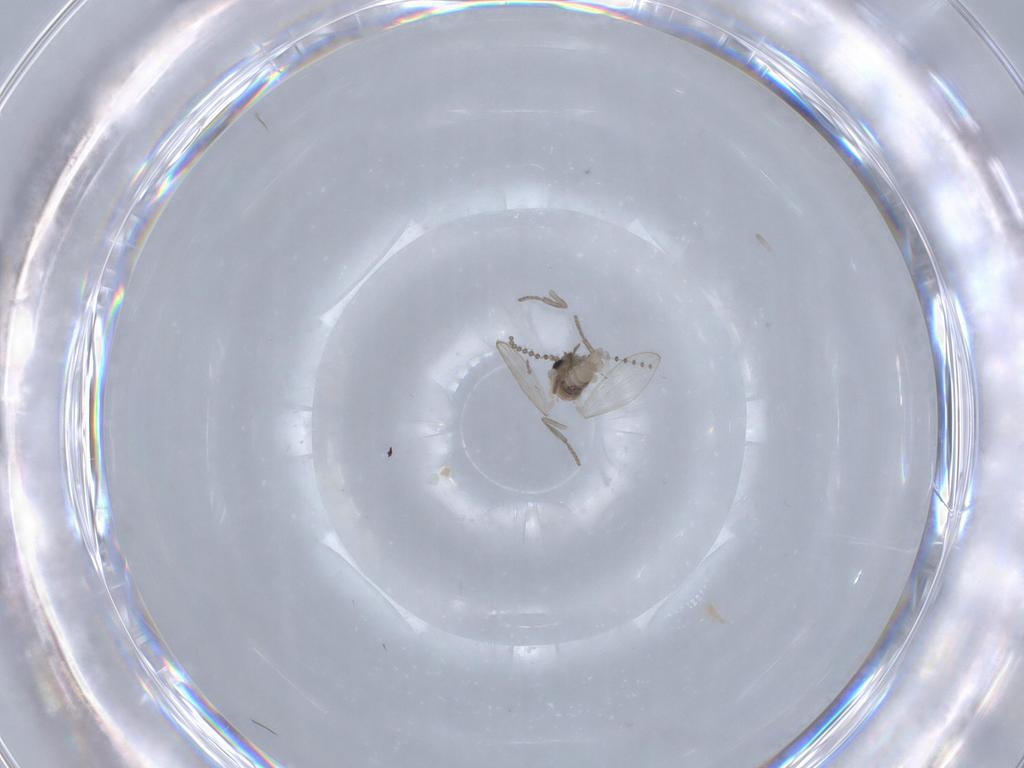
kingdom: Animalia
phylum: Arthropoda
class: Insecta
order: Diptera
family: Psychodidae
